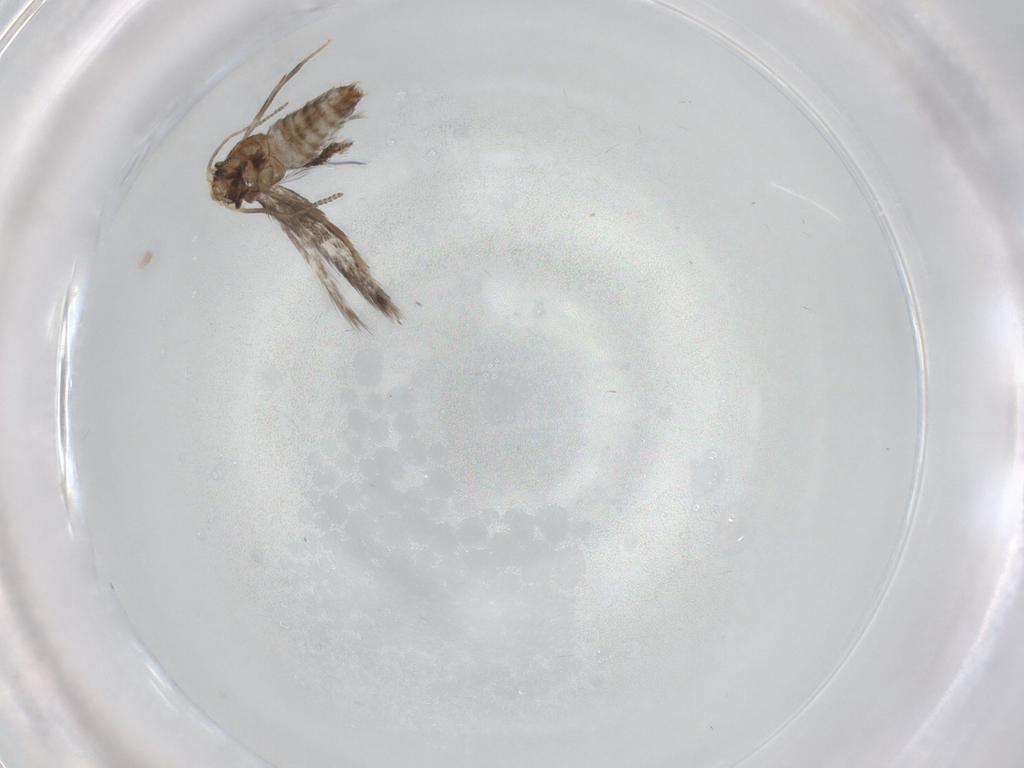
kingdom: Animalia
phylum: Arthropoda
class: Insecta
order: Lepidoptera
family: Nepticulidae
